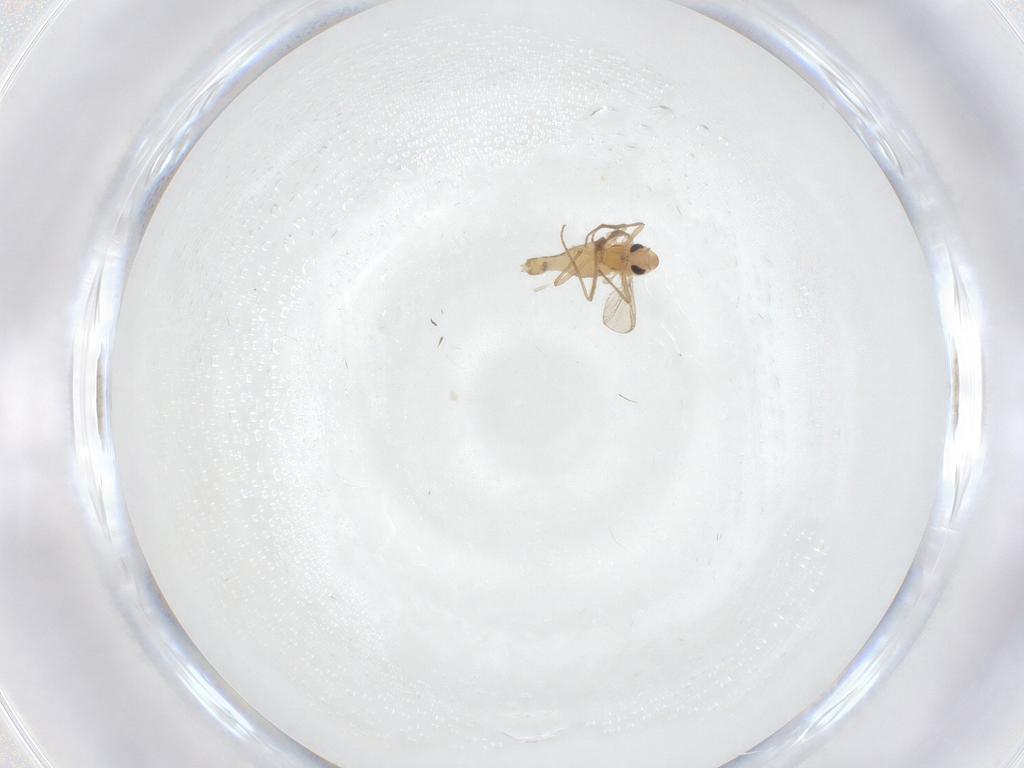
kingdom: Animalia
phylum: Arthropoda
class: Insecta
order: Diptera
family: Chironomidae
